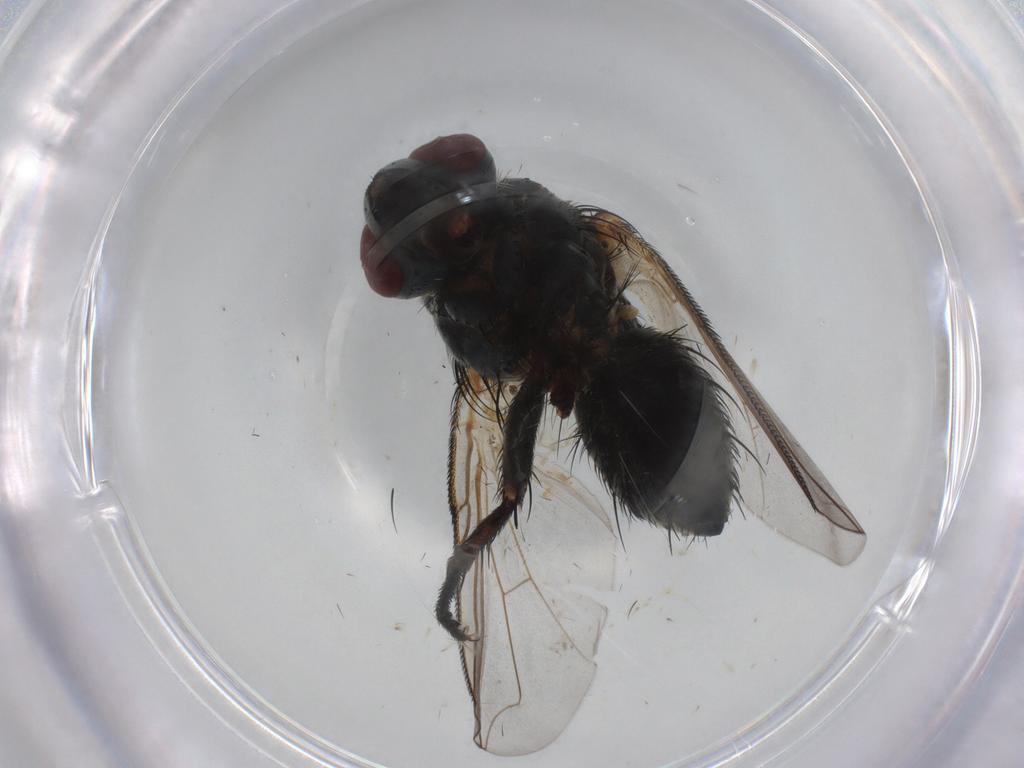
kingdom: Animalia
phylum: Arthropoda
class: Insecta
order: Diptera
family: Tachinidae
